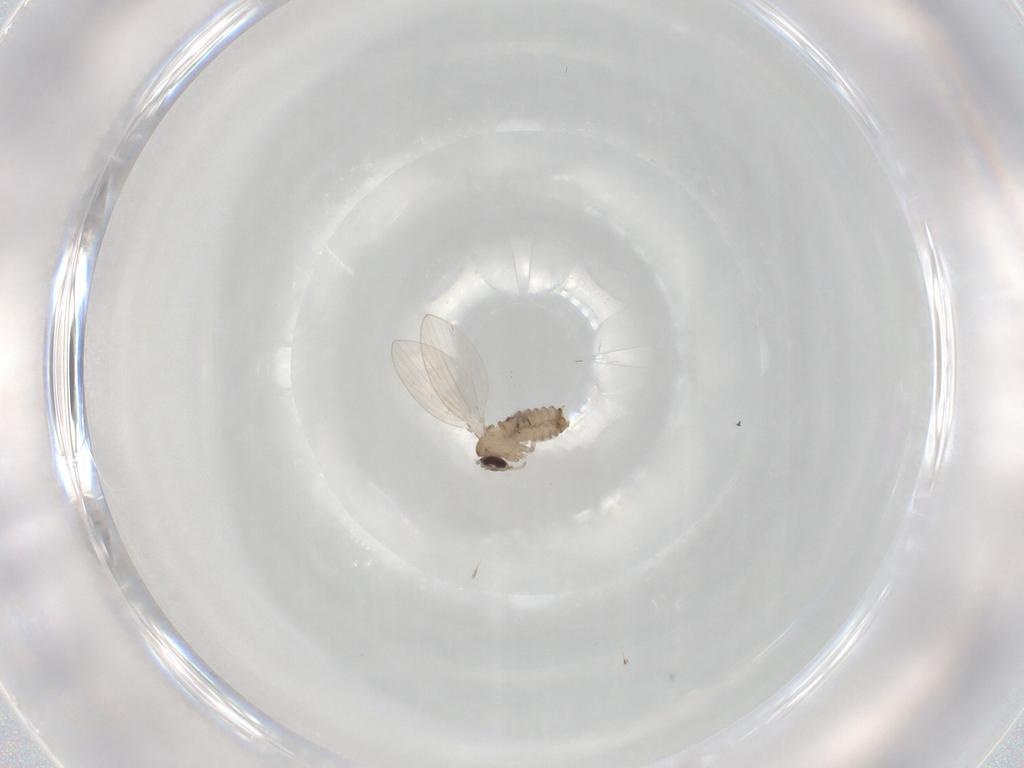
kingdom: Animalia
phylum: Arthropoda
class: Insecta
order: Diptera
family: Psychodidae
